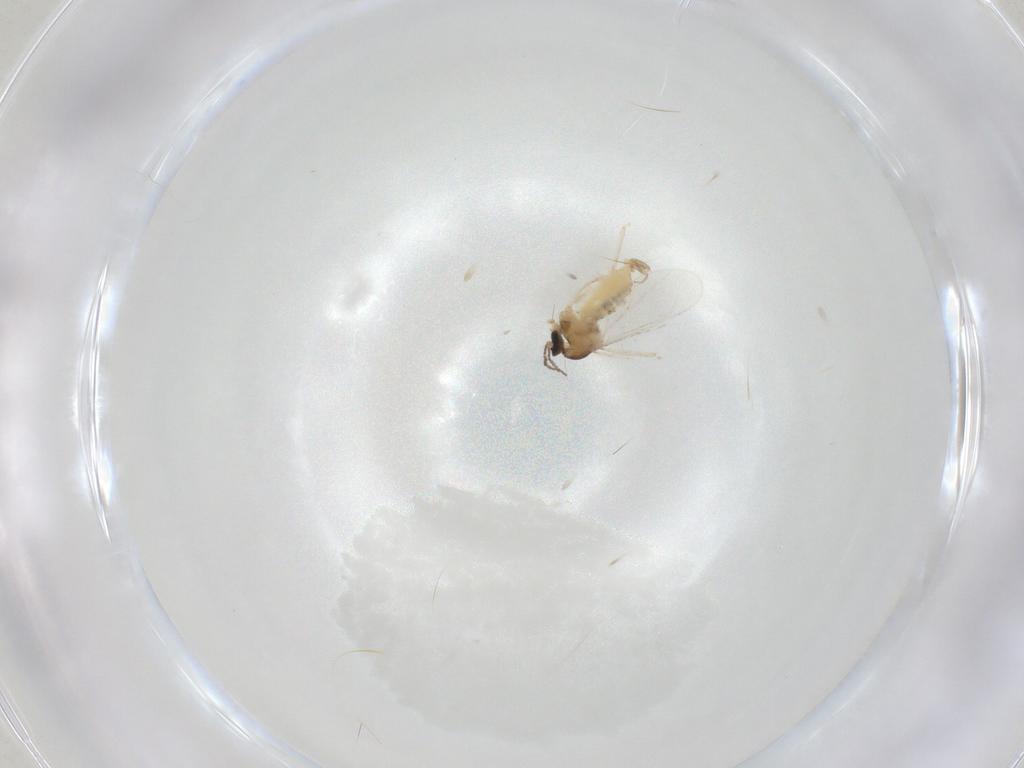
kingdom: Animalia
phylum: Arthropoda
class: Insecta
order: Diptera
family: Cecidomyiidae
